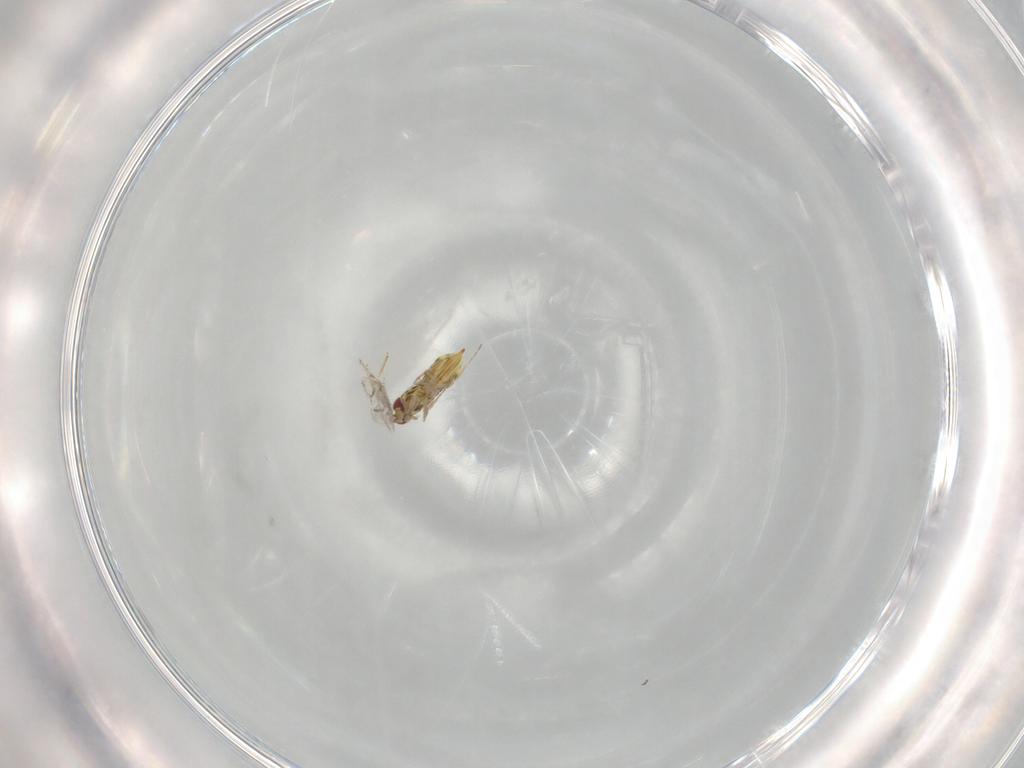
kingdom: Animalia
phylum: Arthropoda
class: Insecta
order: Hymenoptera
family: Trichogrammatidae
